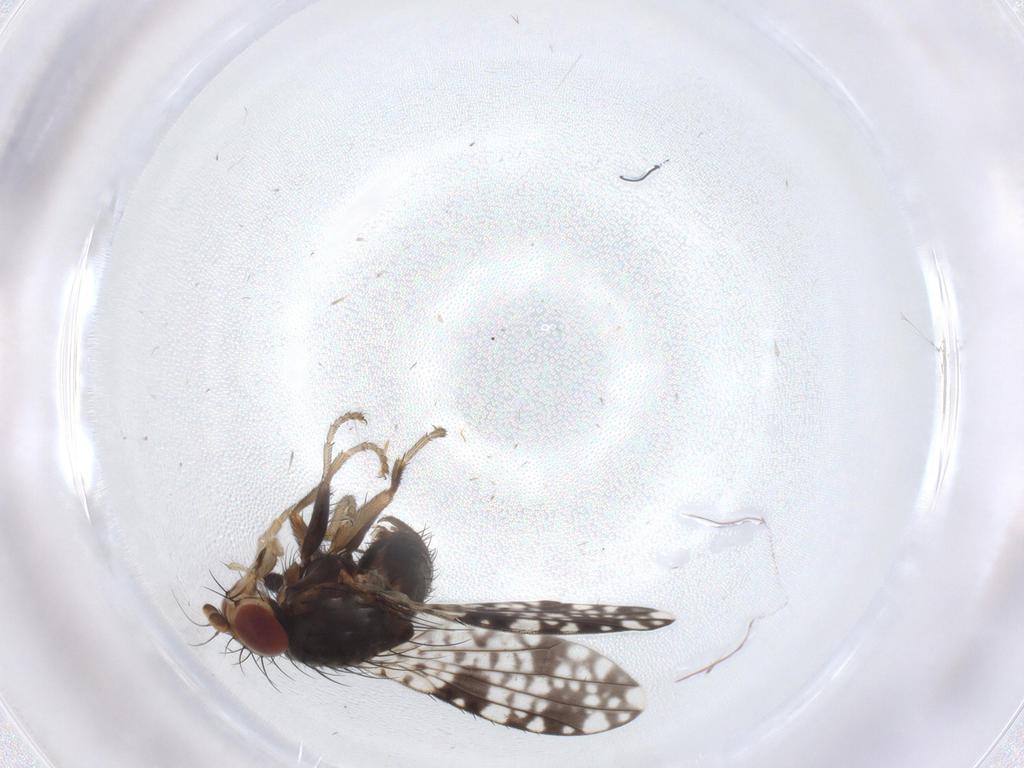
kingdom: Animalia
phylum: Arthropoda
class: Insecta
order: Diptera
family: Tephritidae
